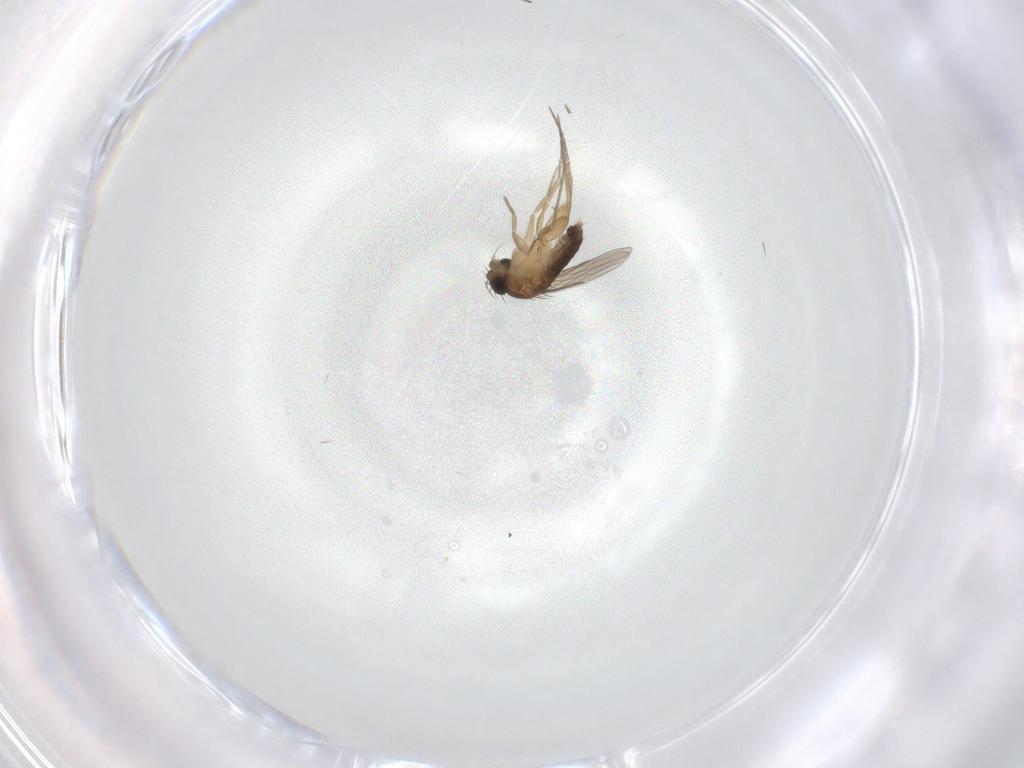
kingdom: Animalia
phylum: Arthropoda
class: Insecta
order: Diptera
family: Phoridae
